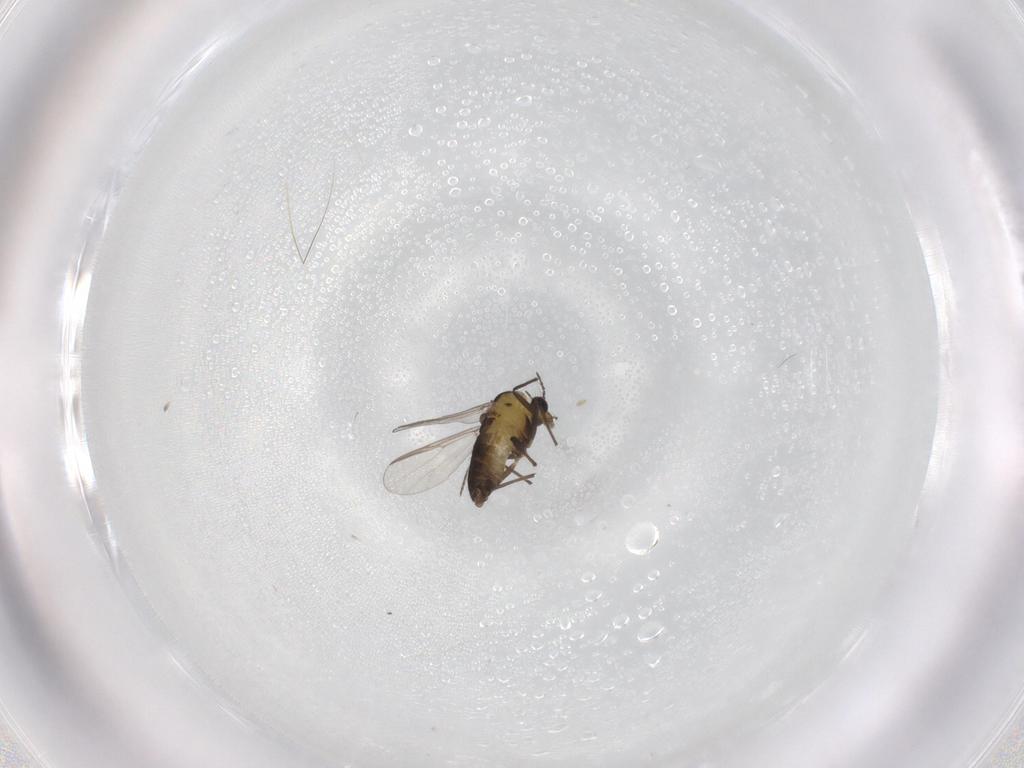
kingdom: Animalia
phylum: Arthropoda
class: Insecta
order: Diptera
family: Chironomidae
